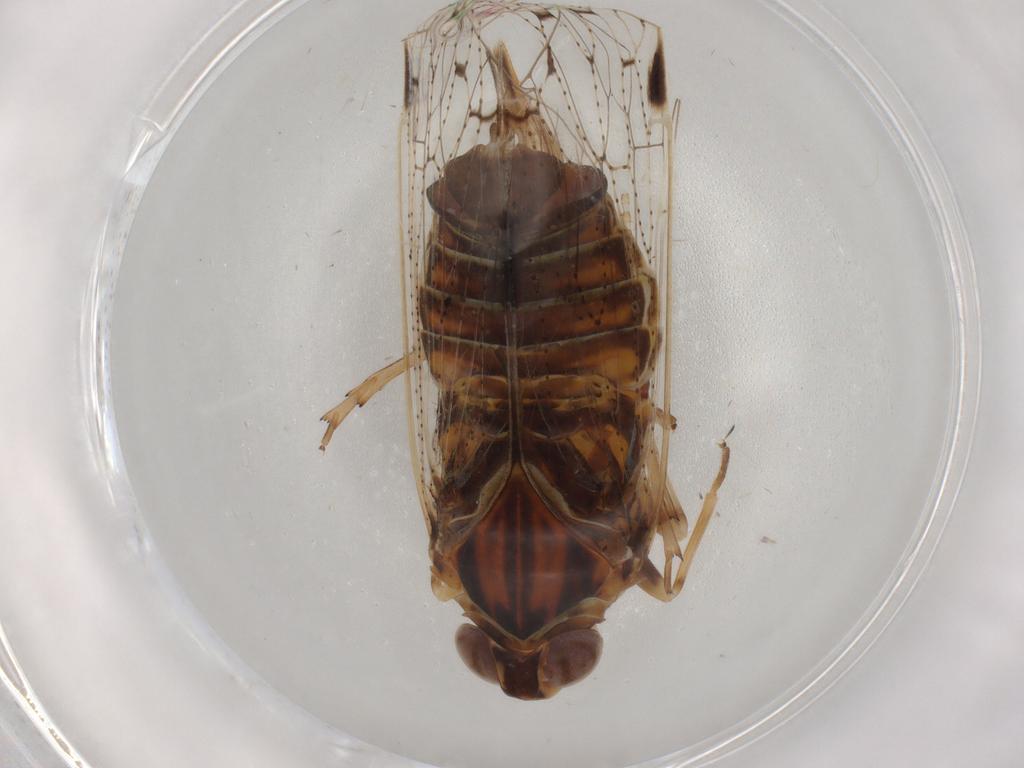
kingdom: Animalia
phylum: Arthropoda
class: Insecta
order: Hemiptera
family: Cixiidae
